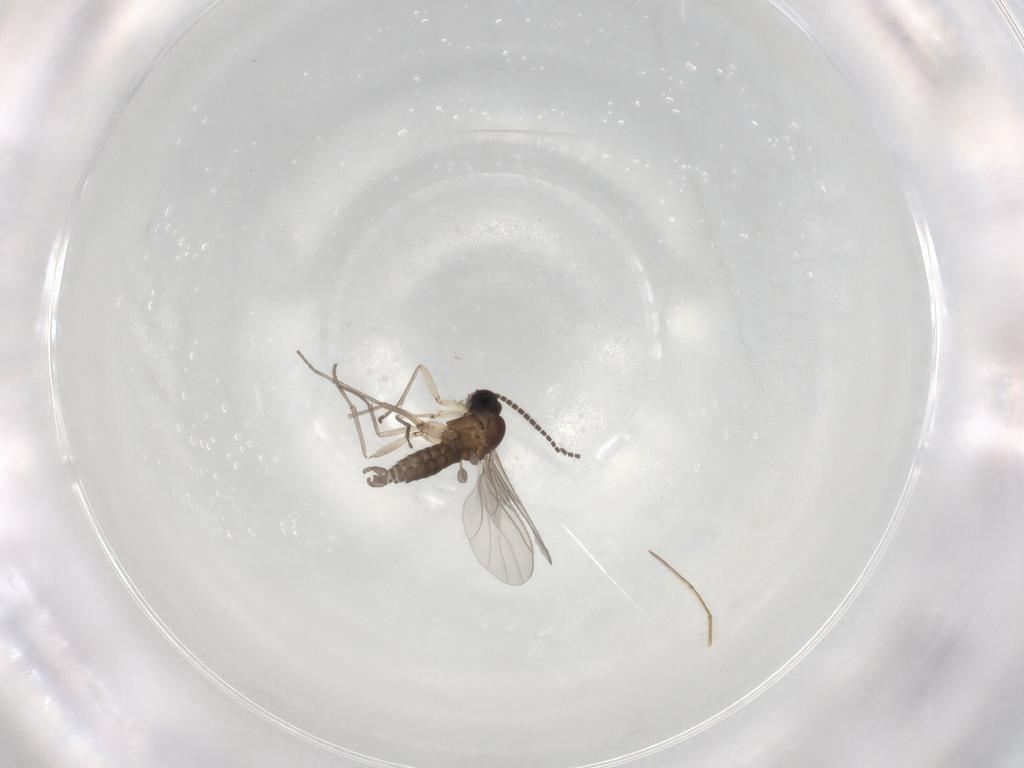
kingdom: Animalia
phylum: Arthropoda
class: Insecta
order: Diptera
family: Sciaridae
